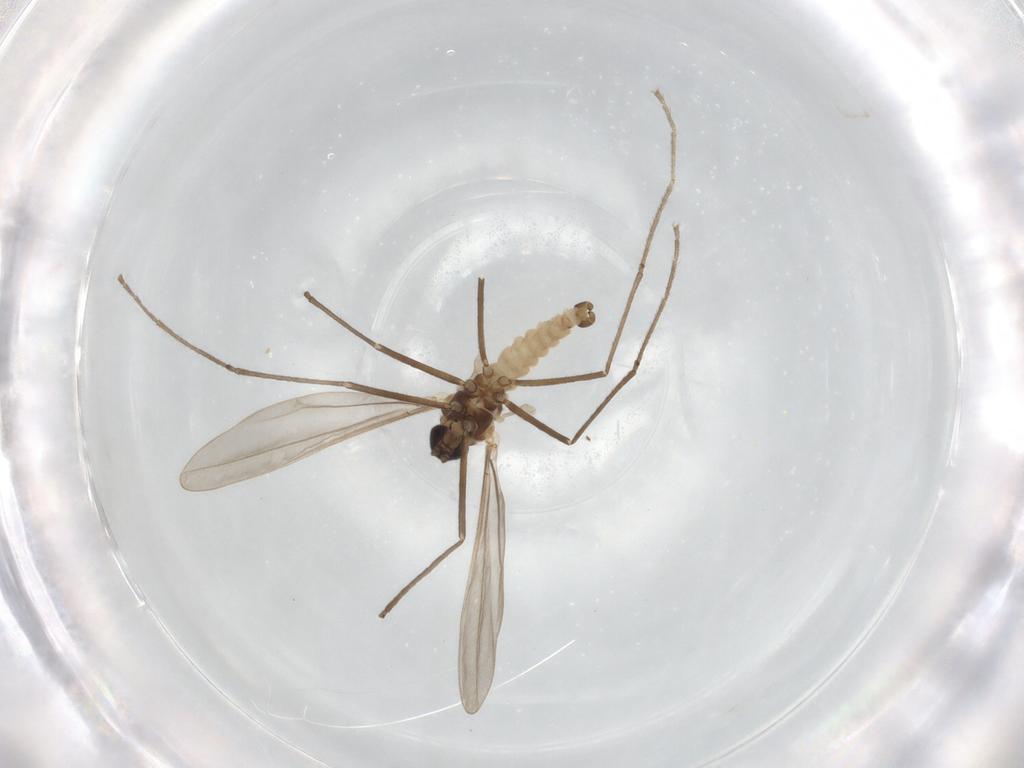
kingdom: Animalia
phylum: Arthropoda
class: Insecta
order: Diptera
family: Cecidomyiidae
